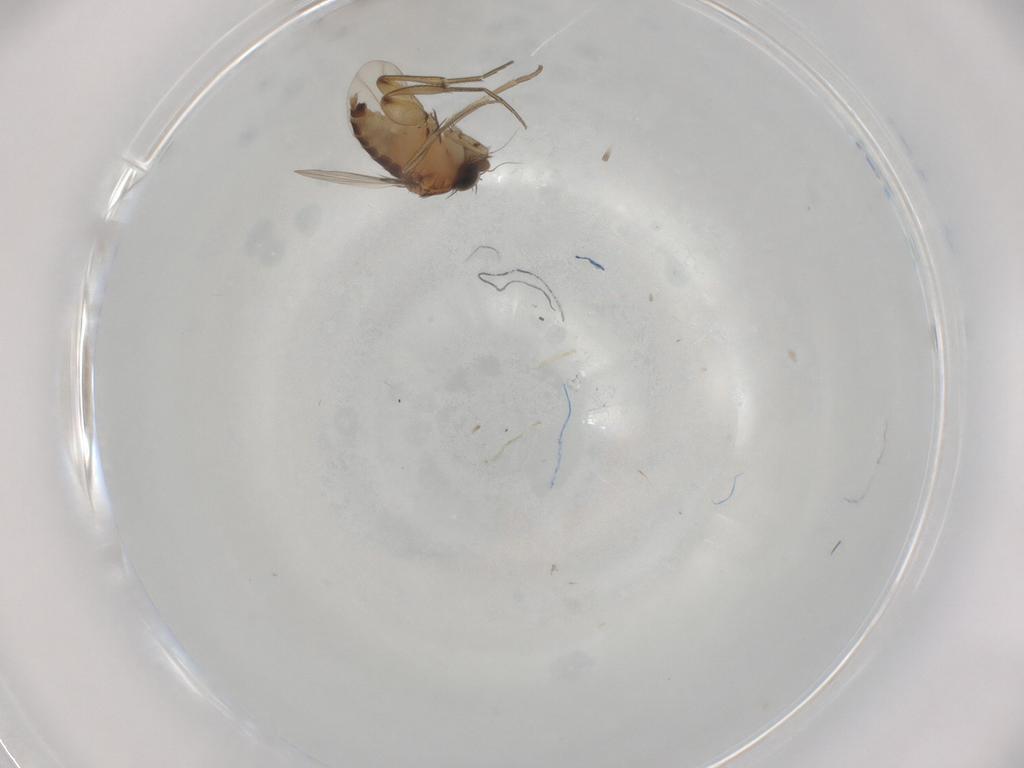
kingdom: Animalia
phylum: Arthropoda
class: Insecta
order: Diptera
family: Phoridae
